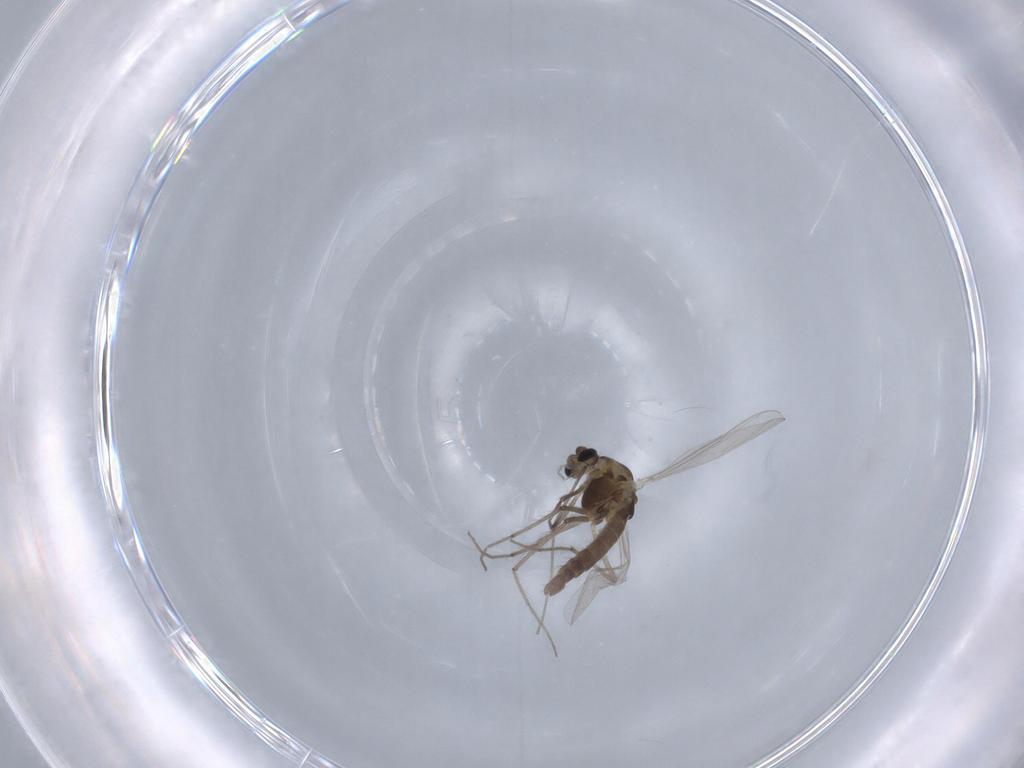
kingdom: Animalia
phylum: Arthropoda
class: Insecta
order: Diptera
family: Chironomidae
